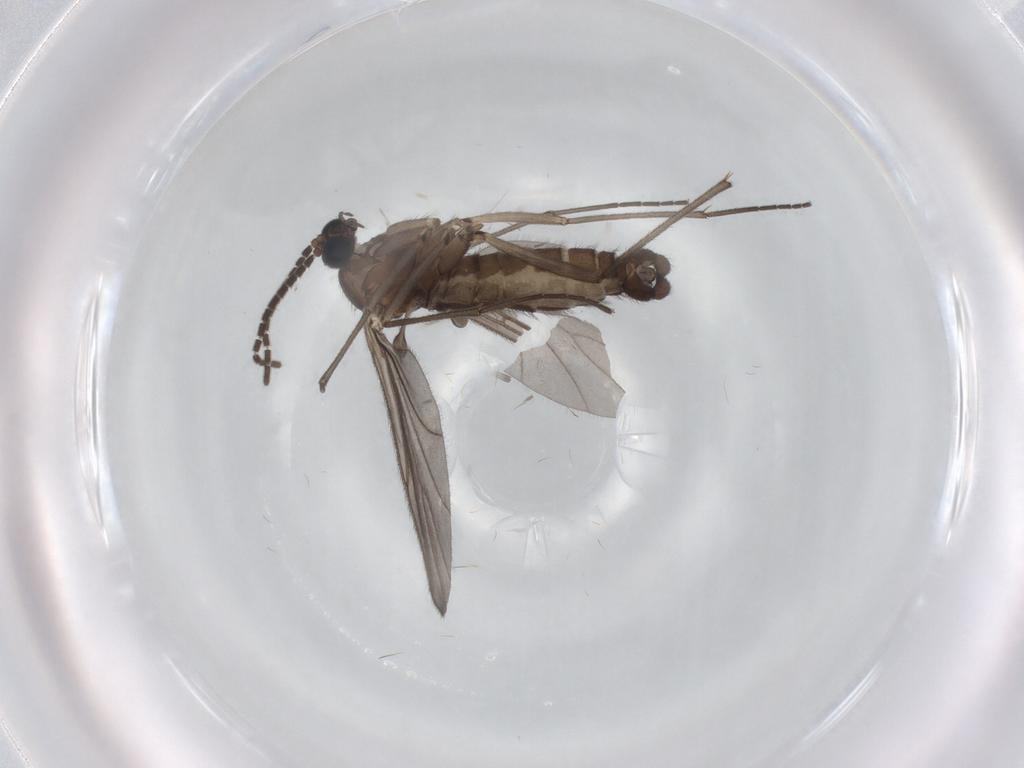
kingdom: Animalia
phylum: Arthropoda
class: Insecta
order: Diptera
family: Sciaridae
